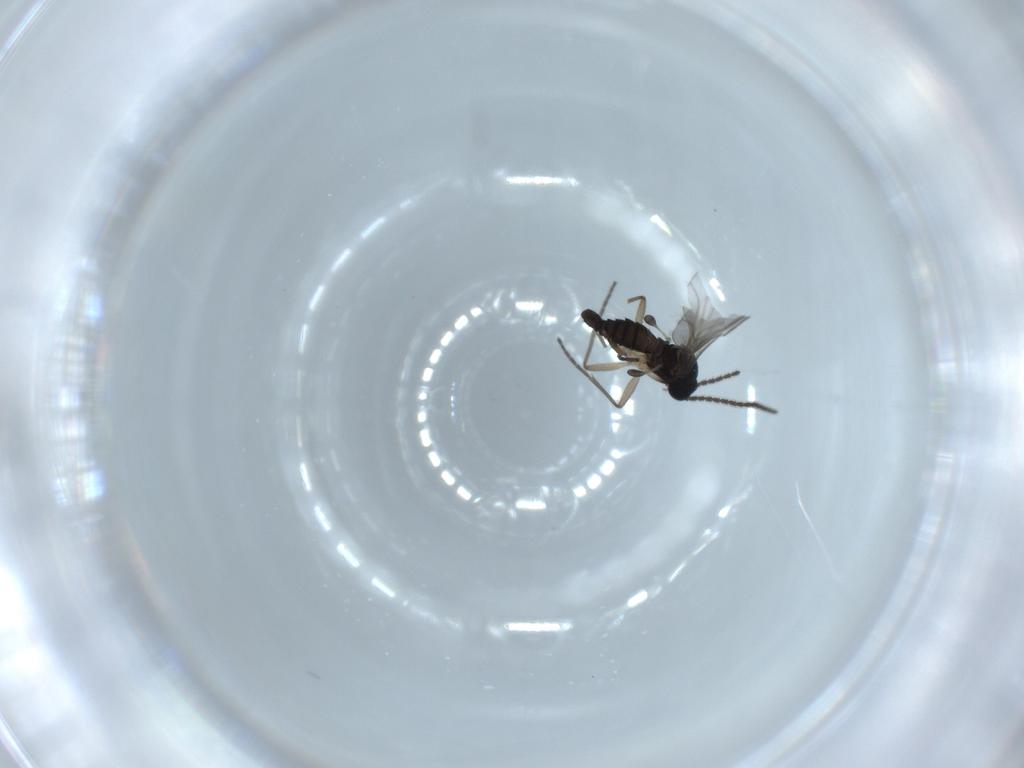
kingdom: Animalia
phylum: Arthropoda
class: Insecta
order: Diptera
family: Sciaridae
